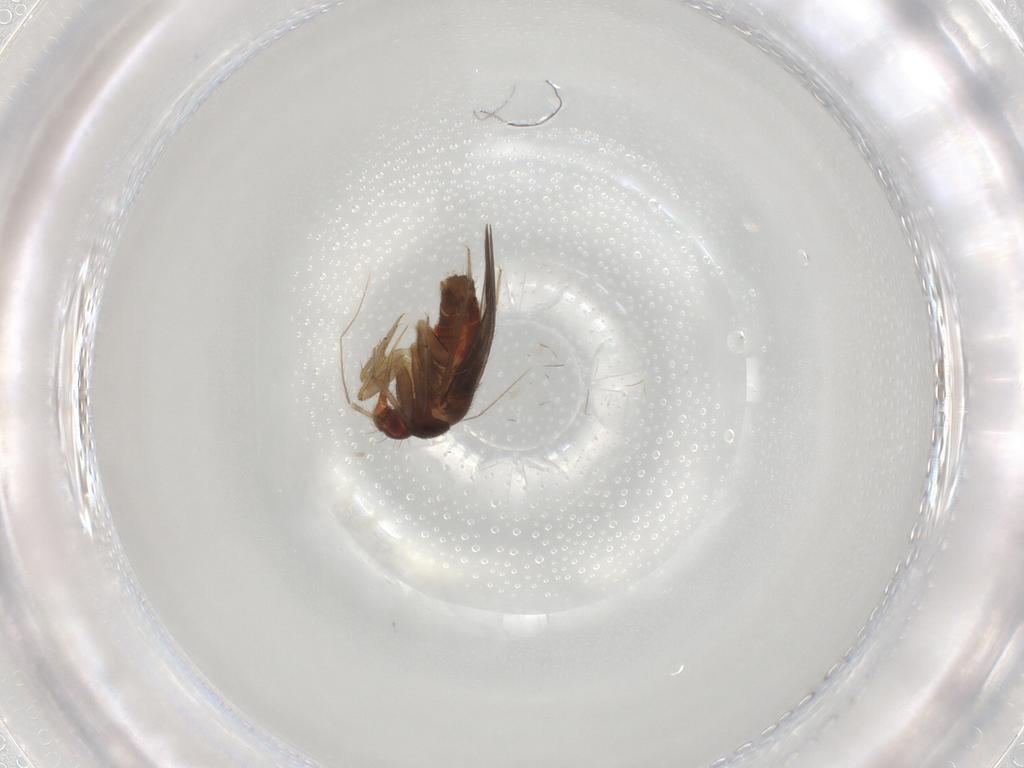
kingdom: Animalia
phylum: Arthropoda
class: Insecta
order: Hemiptera
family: Ceratocombidae
